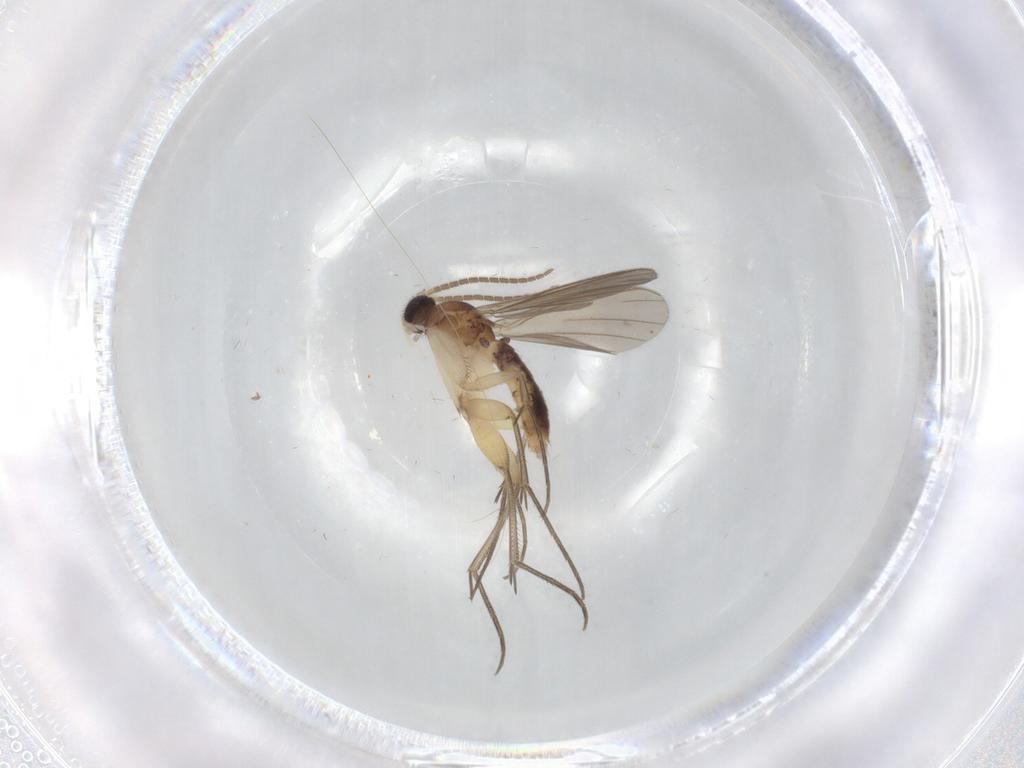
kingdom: Animalia
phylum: Arthropoda
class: Insecta
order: Diptera
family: Mycetophilidae
